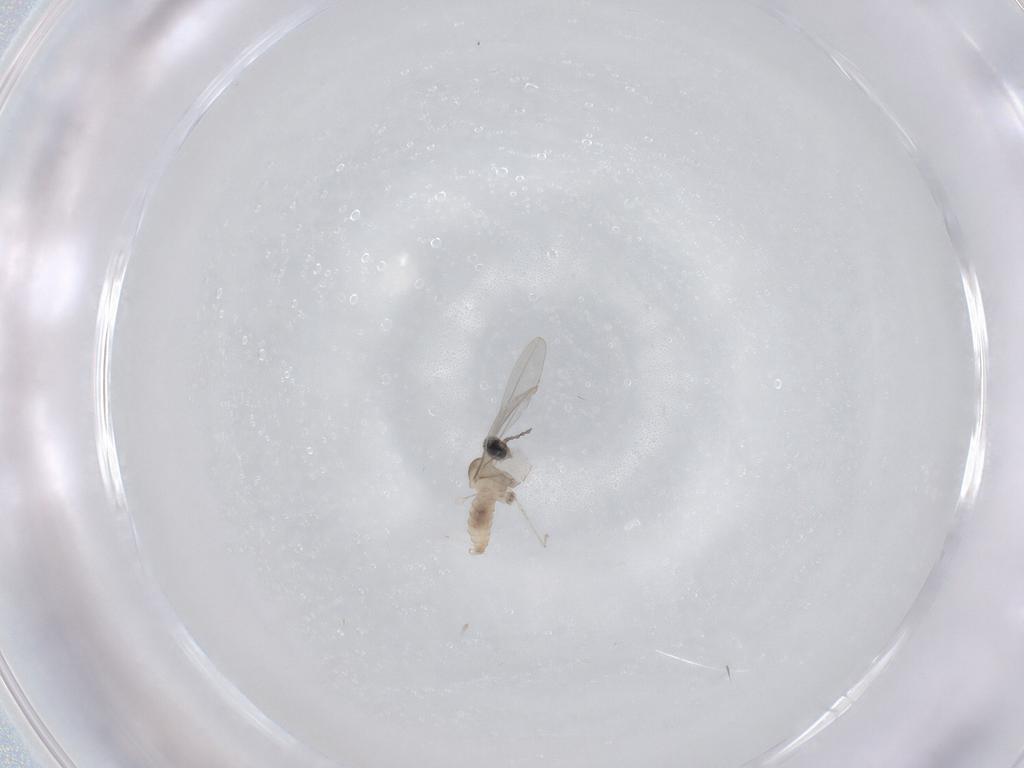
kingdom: Animalia
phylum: Arthropoda
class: Insecta
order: Diptera
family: Cecidomyiidae
